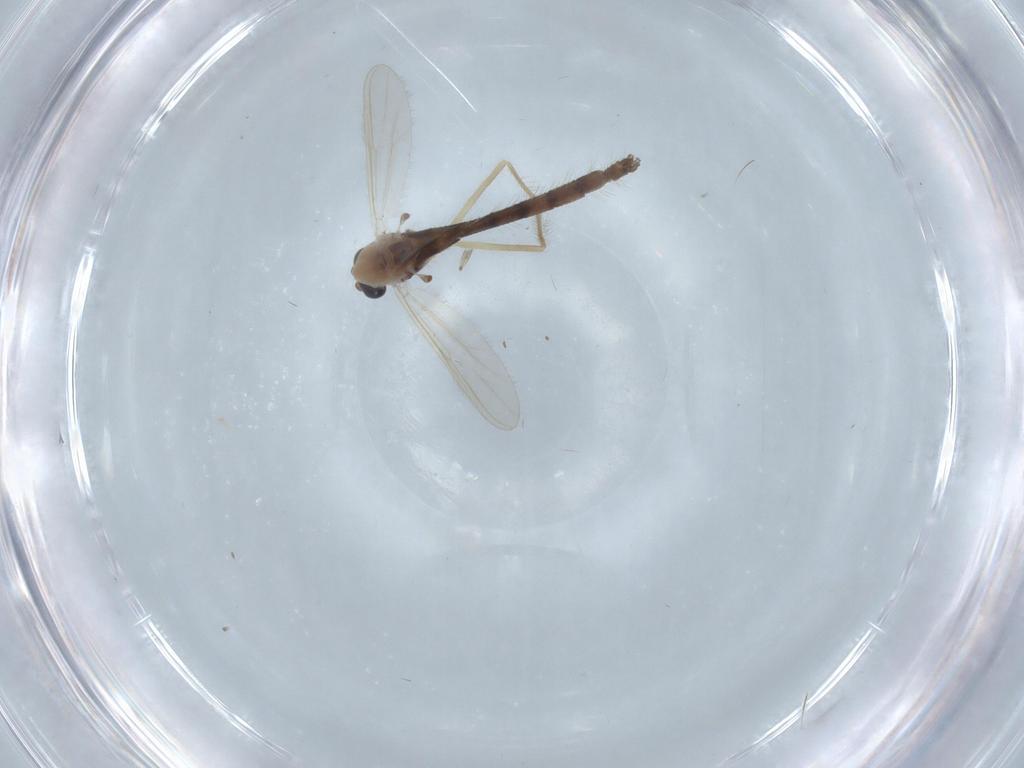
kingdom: Animalia
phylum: Arthropoda
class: Insecta
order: Diptera
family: Chironomidae
